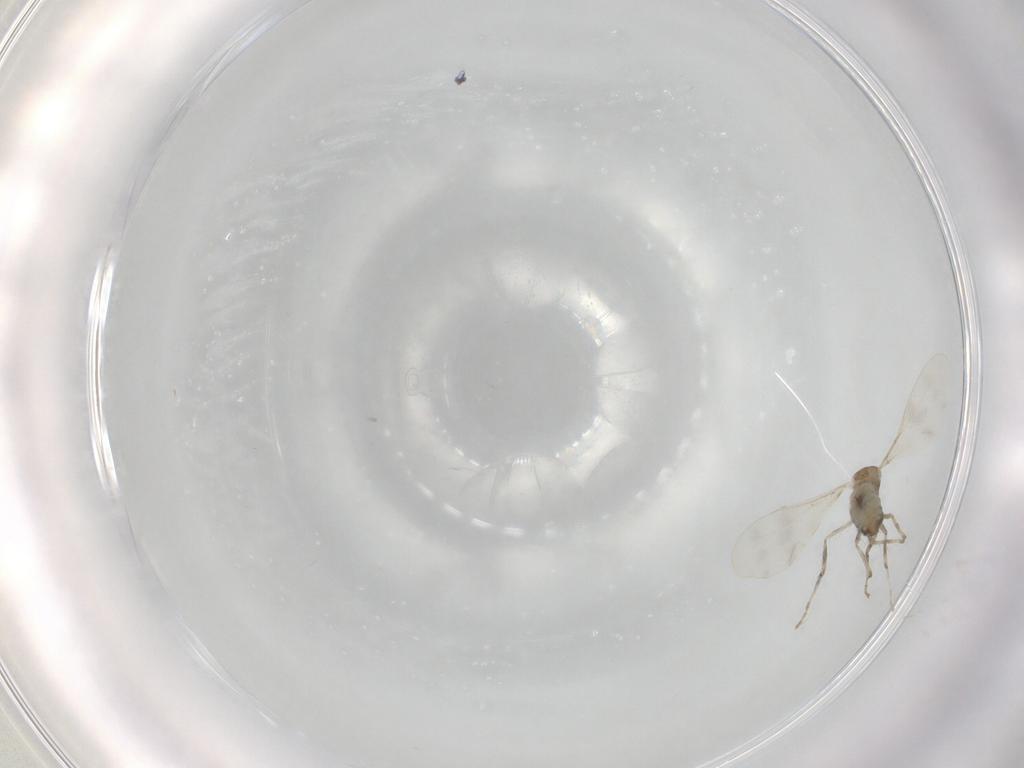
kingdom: Animalia
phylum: Arthropoda
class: Insecta
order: Diptera
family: Cecidomyiidae
